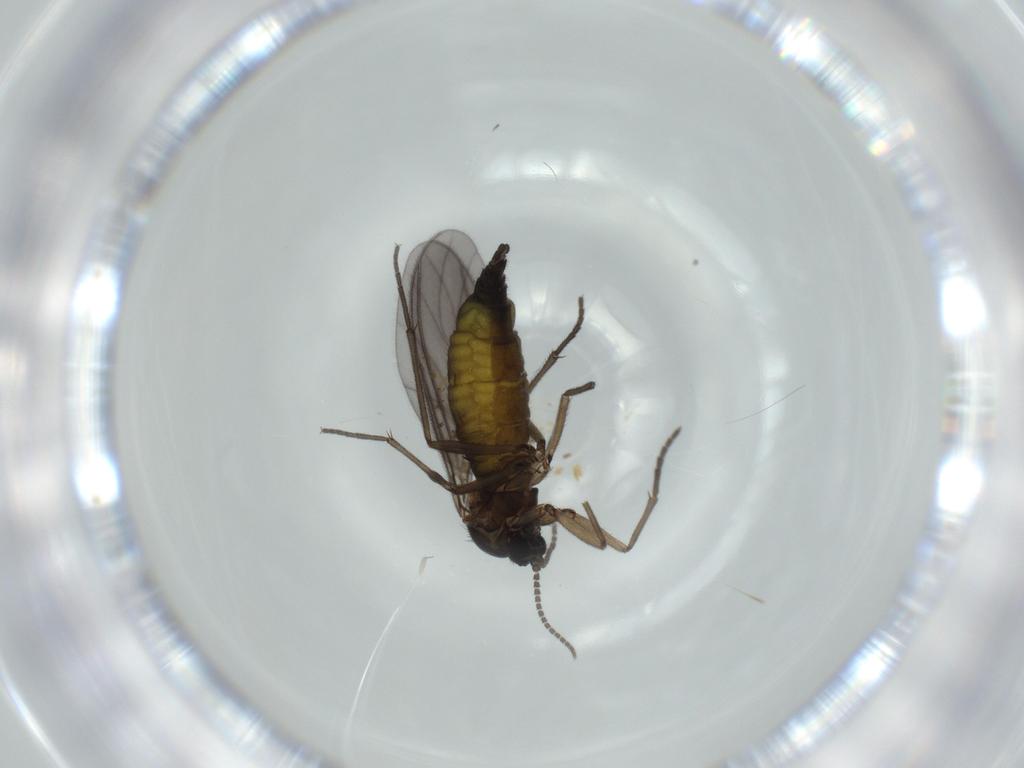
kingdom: Animalia
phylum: Arthropoda
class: Insecta
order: Diptera
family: Sciaridae
